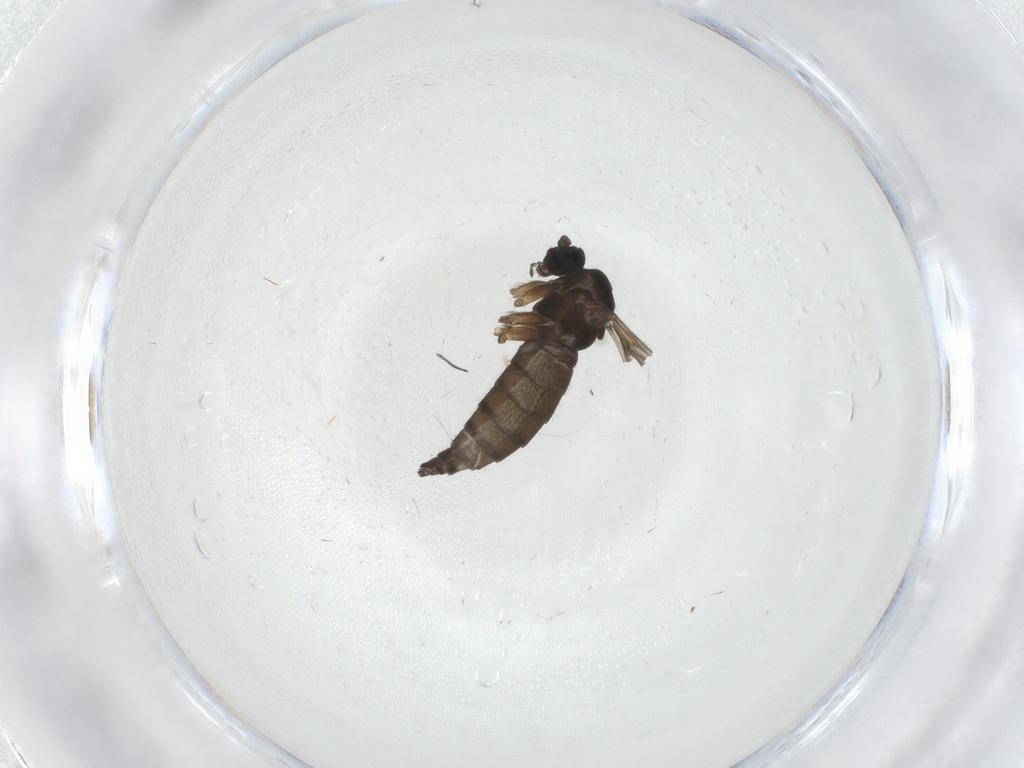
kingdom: Animalia
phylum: Arthropoda
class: Insecta
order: Diptera
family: Sciaridae
